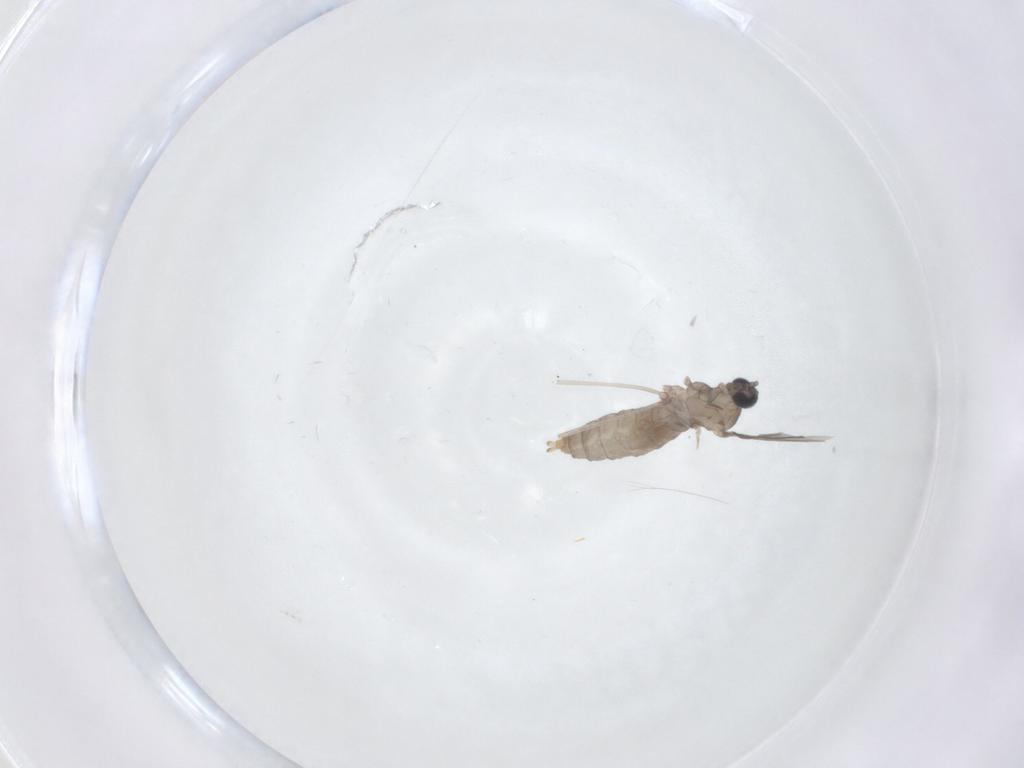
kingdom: Animalia
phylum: Arthropoda
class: Insecta
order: Diptera
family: Cecidomyiidae
